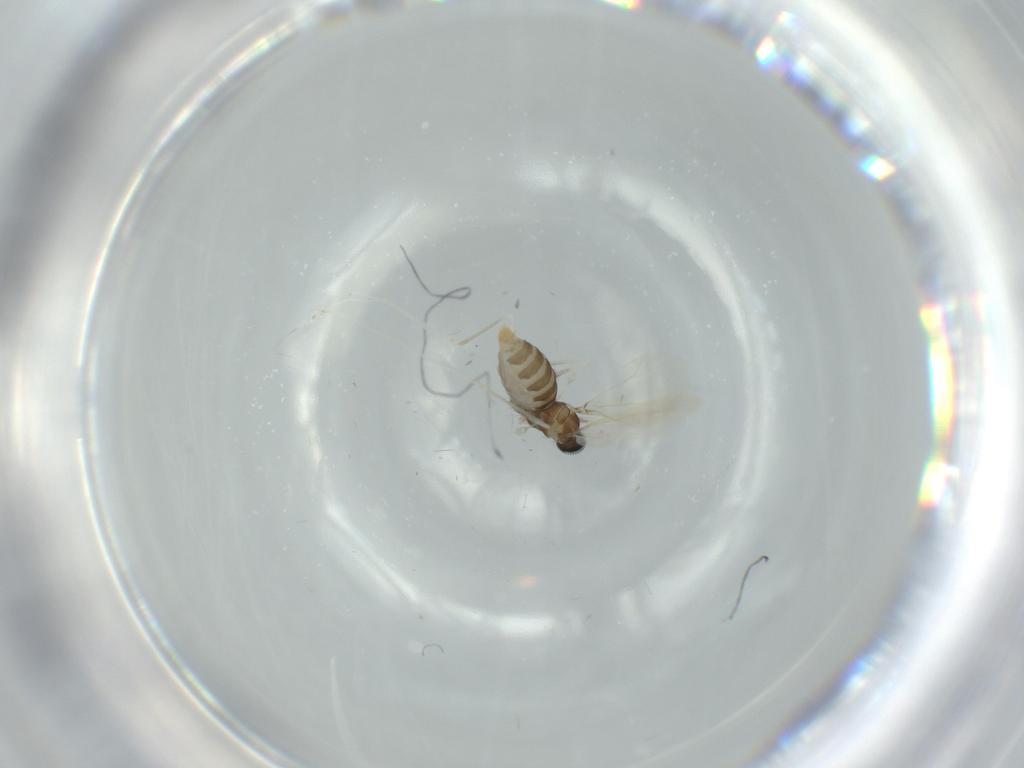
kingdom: Animalia
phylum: Arthropoda
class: Insecta
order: Diptera
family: Cecidomyiidae
